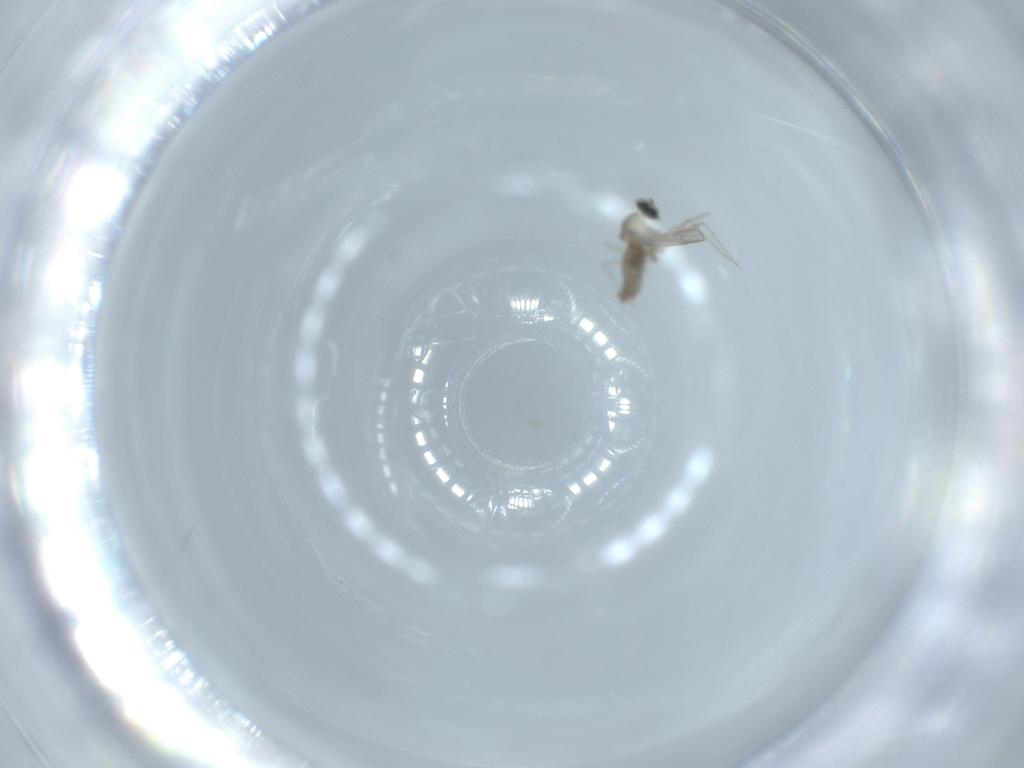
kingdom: Animalia
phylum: Arthropoda
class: Insecta
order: Diptera
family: Cecidomyiidae
